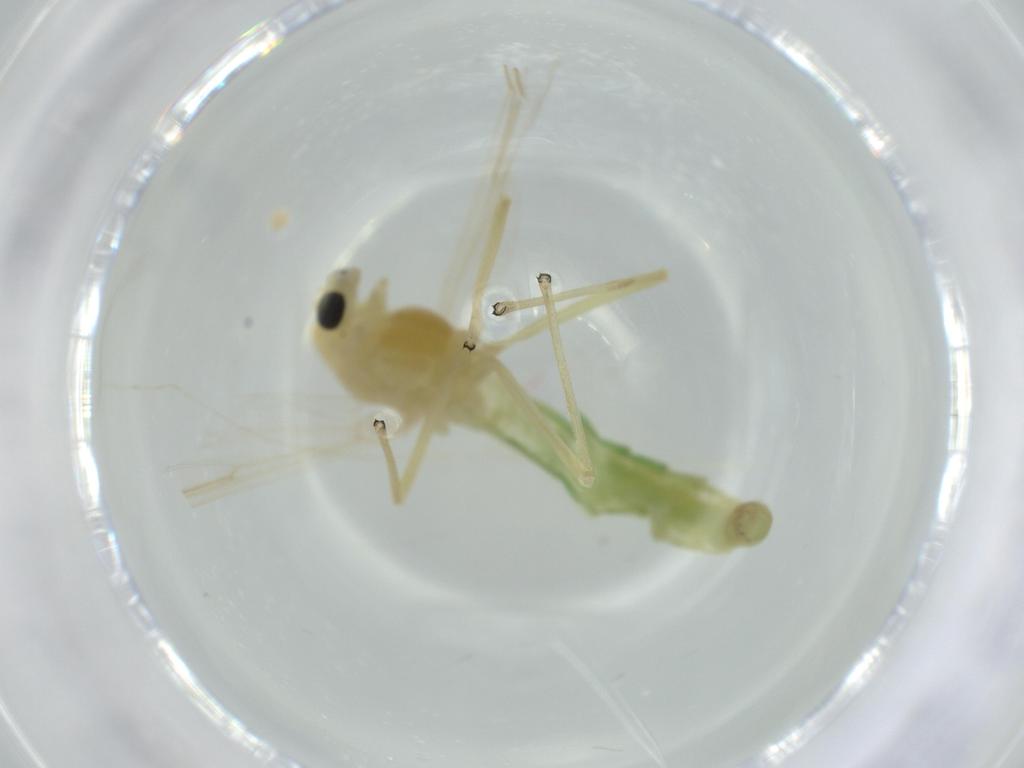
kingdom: Animalia
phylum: Arthropoda
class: Insecta
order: Diptera
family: Chironomidae
